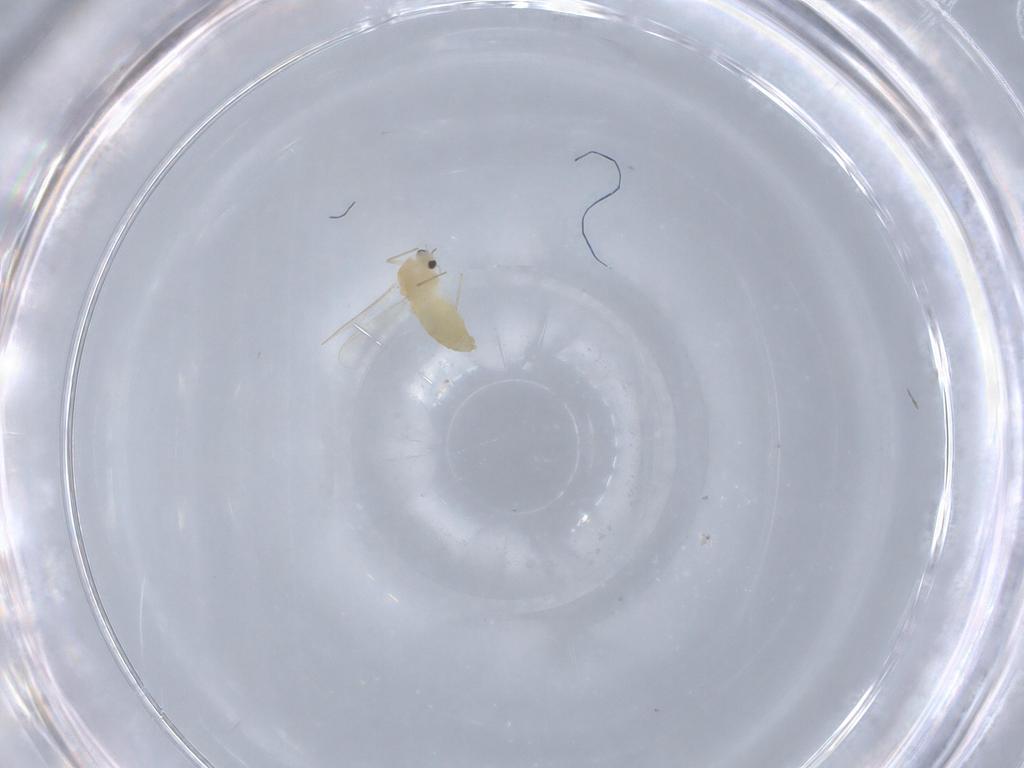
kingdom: Animalia
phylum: Arthropoda
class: Insecta
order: Diptera
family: Chironomidae
